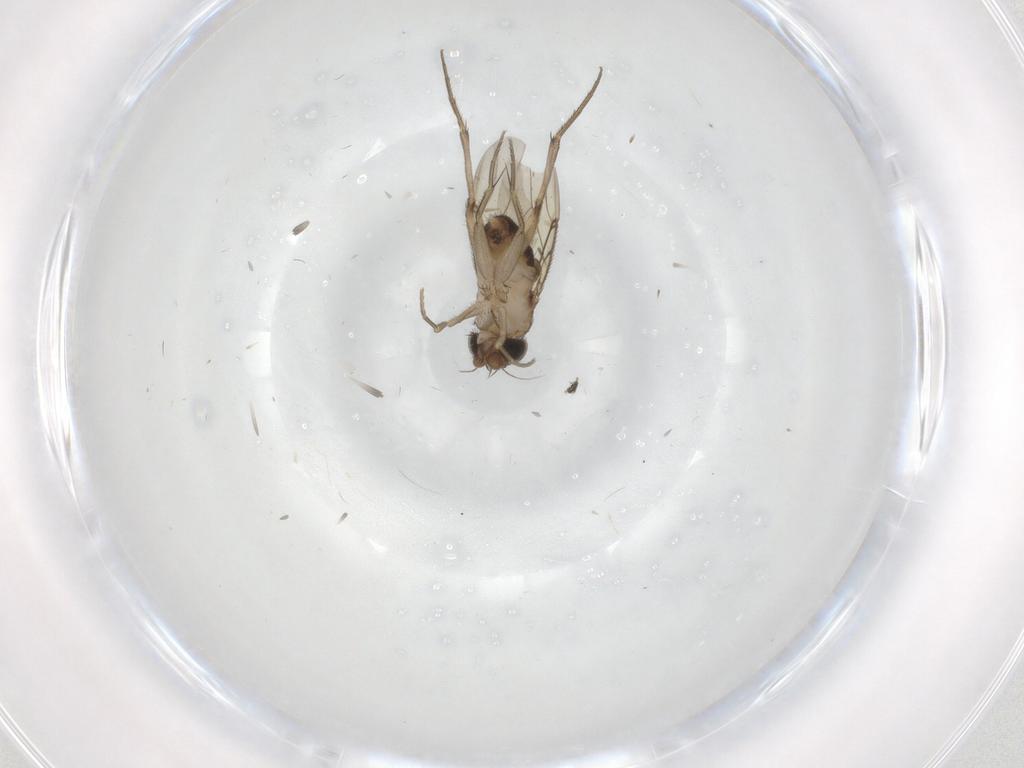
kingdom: Animalia
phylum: Arthropoda
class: Insecta
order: Diptera
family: Phoridae
